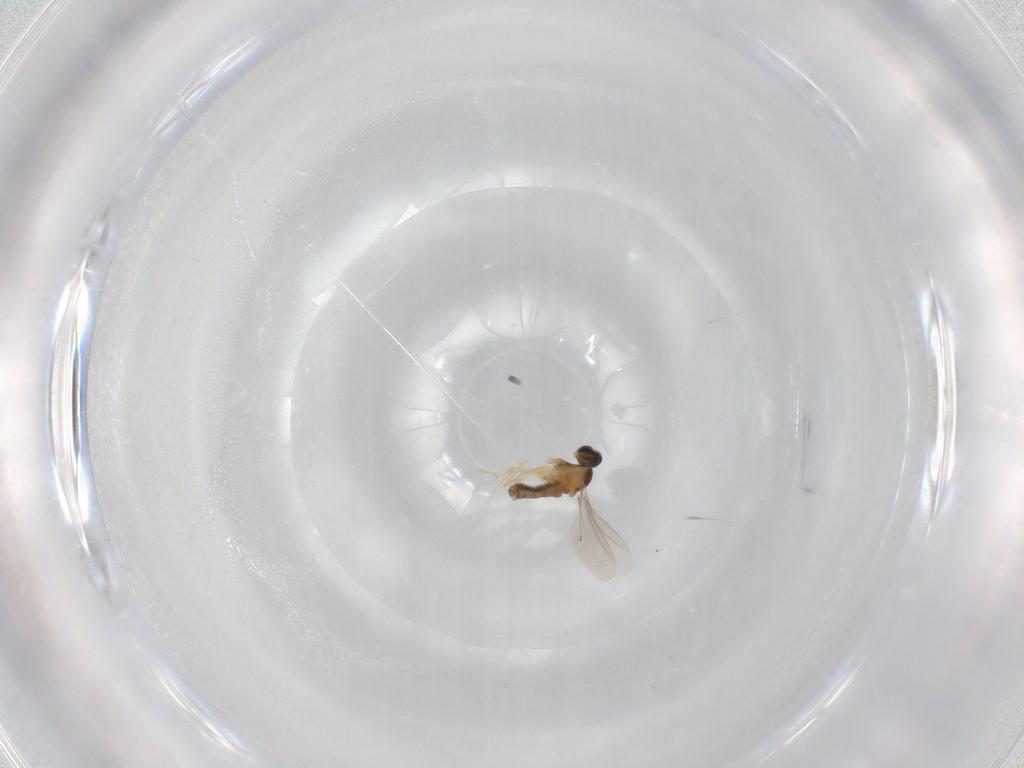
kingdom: Animalia
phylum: Arthropoda
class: Insecta
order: Diptera
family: Cecidomyiidae
